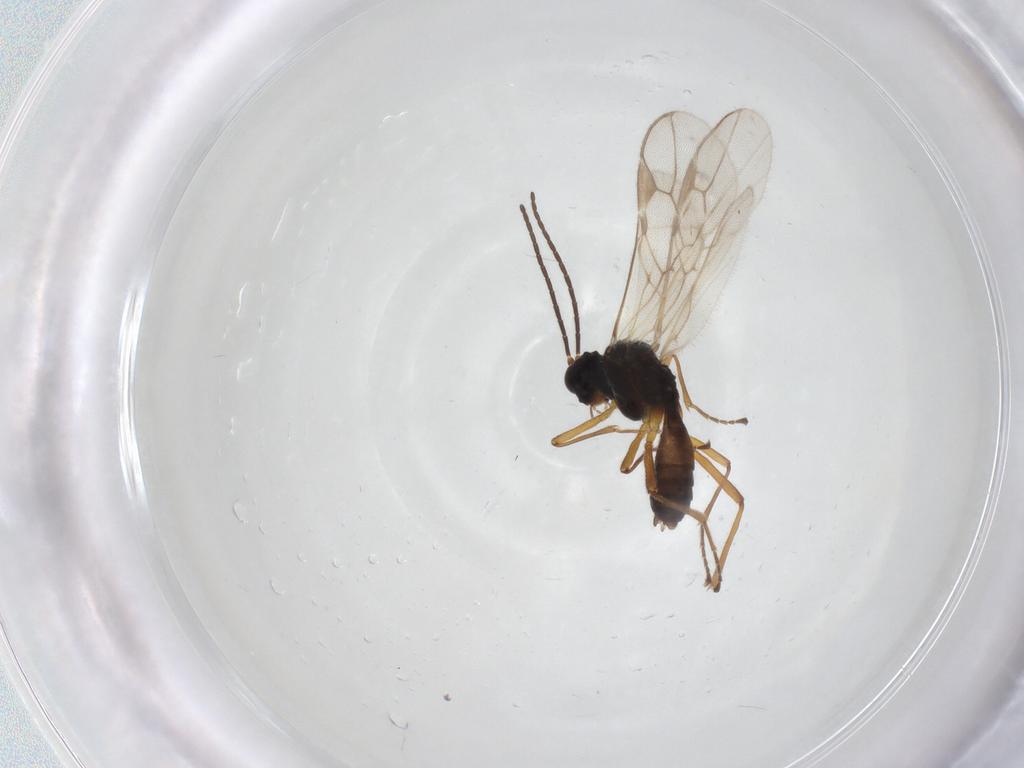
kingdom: Animalia
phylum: Arthropoda
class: Insecta
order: Hymenoptera
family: Braconidae
